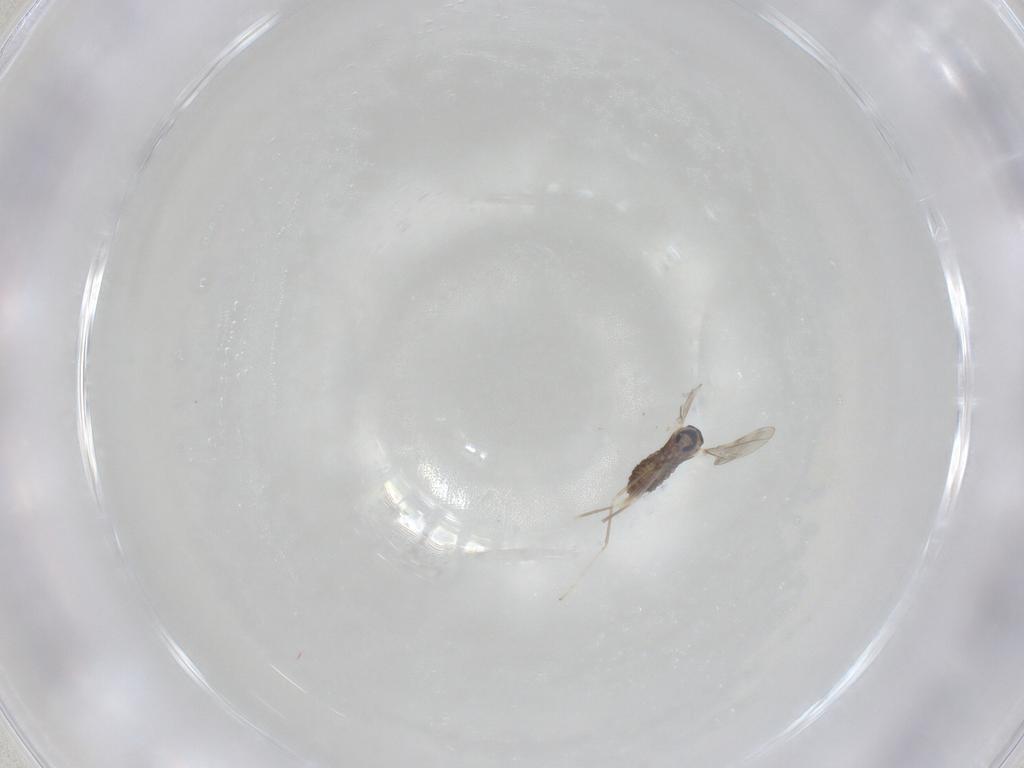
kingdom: Animalia
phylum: Arthropoda
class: Insecta
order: Diptera
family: Cecidomyiidae
